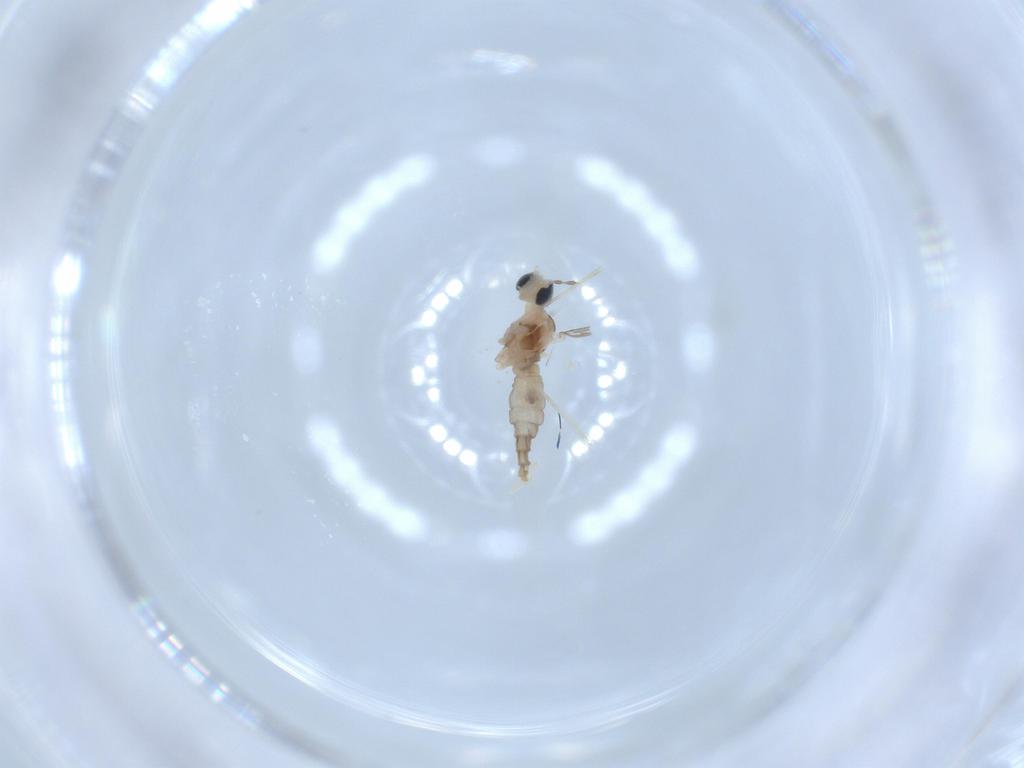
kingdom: Animalia
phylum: Arthropoda
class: Insecta
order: Diptera
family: Cecidomyiidae
